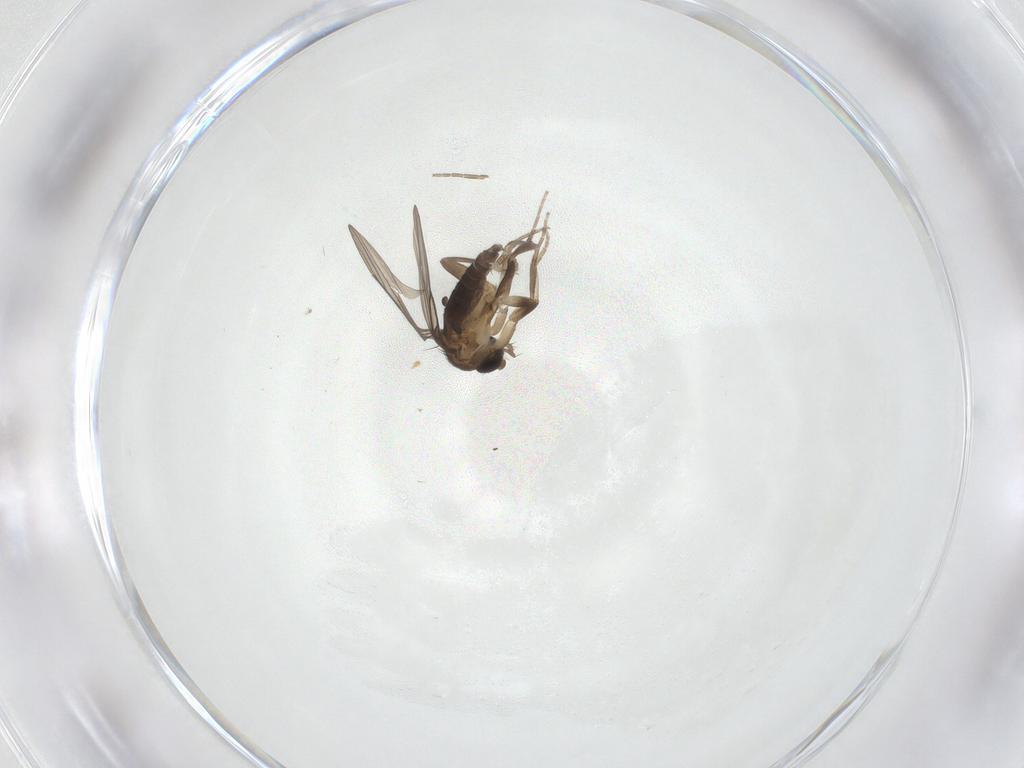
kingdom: Animalia
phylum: Arthropoda
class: Insecta
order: Diptera
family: Phoridae
